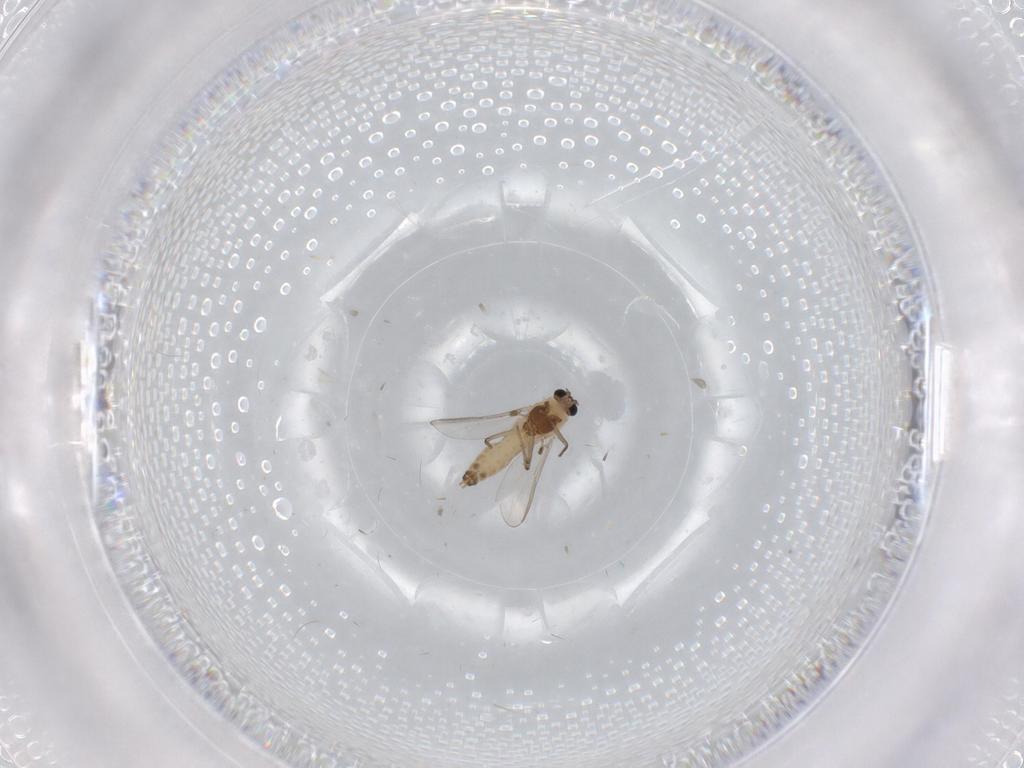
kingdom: Animalia
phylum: Arthropoda
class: Insecta
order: Diptera
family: Chironomidae
